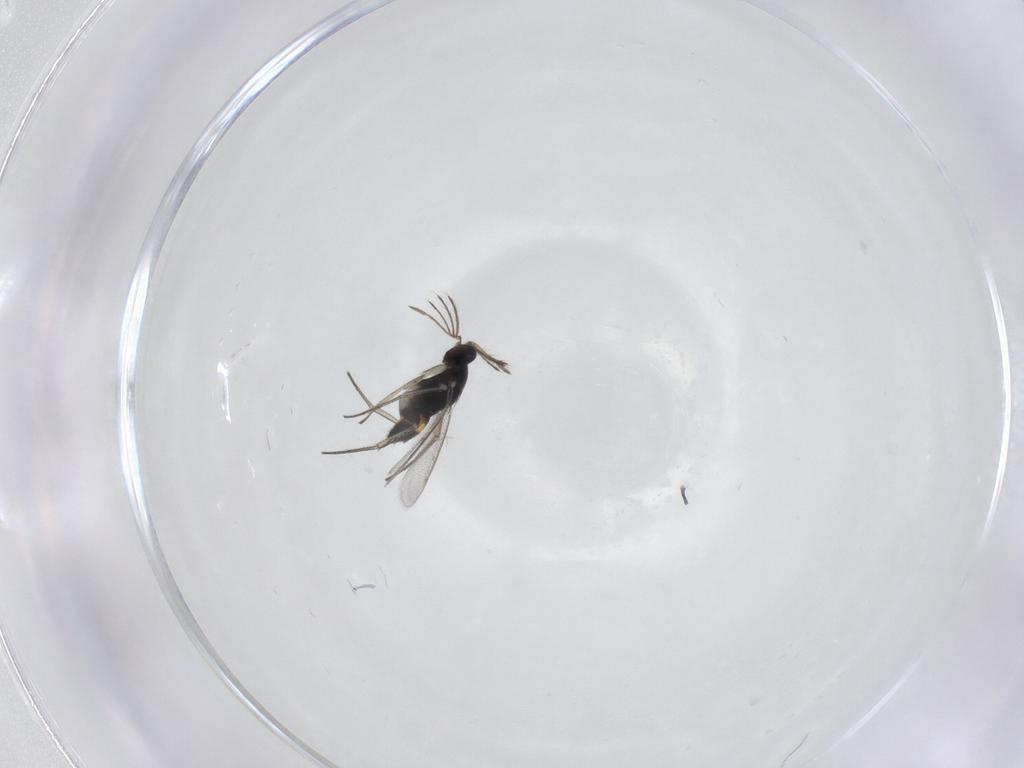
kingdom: Animalia
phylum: Arthropoda
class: Insecta
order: Hymenoptera
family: Eulophidae
